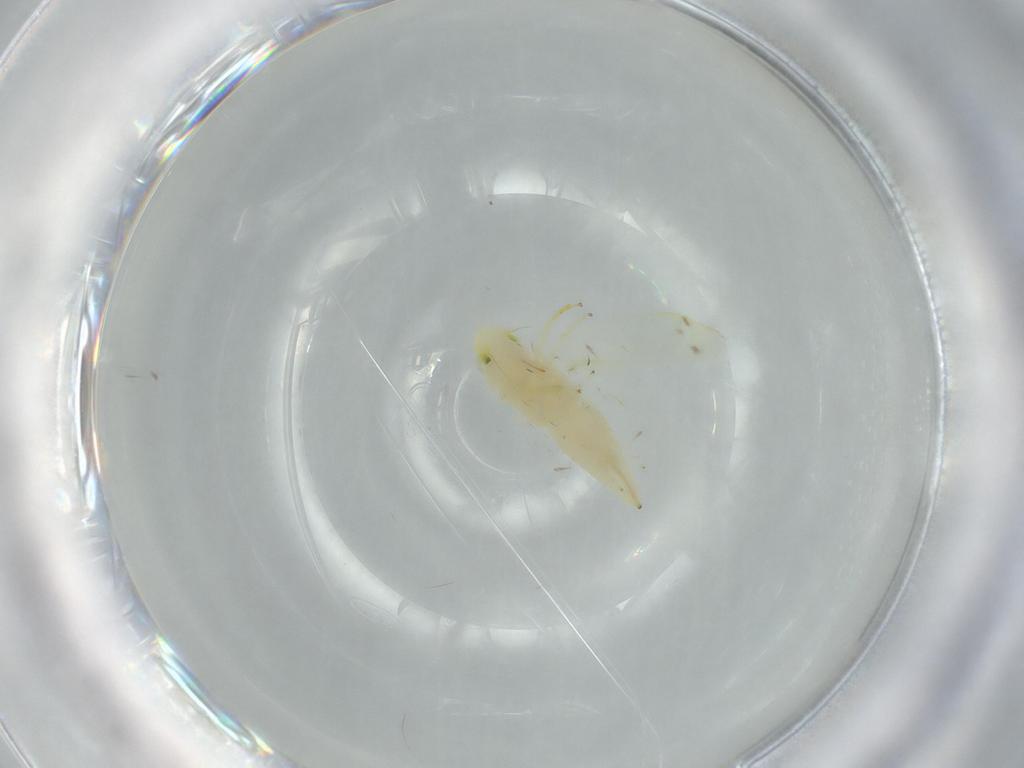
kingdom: Animalia
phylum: Arthropoda
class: Insecta
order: Hemiptera
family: Cicadellidae
